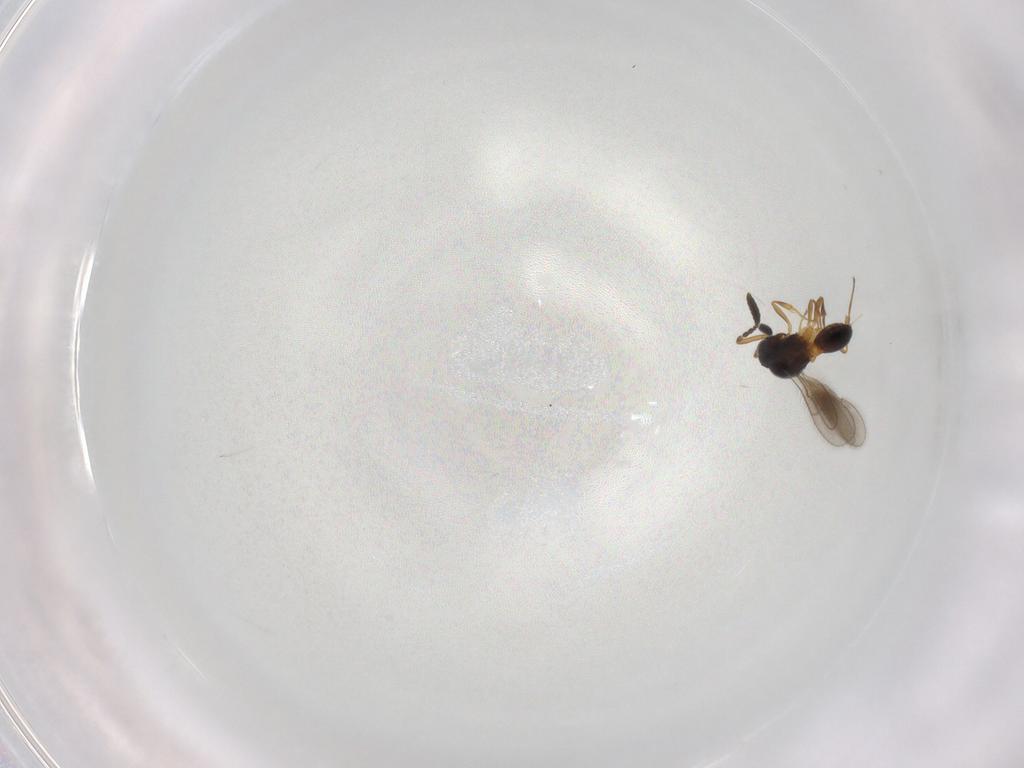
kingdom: Animalia
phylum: Arthropoda
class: Insecta
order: Hymenoptera
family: Scelionidae
